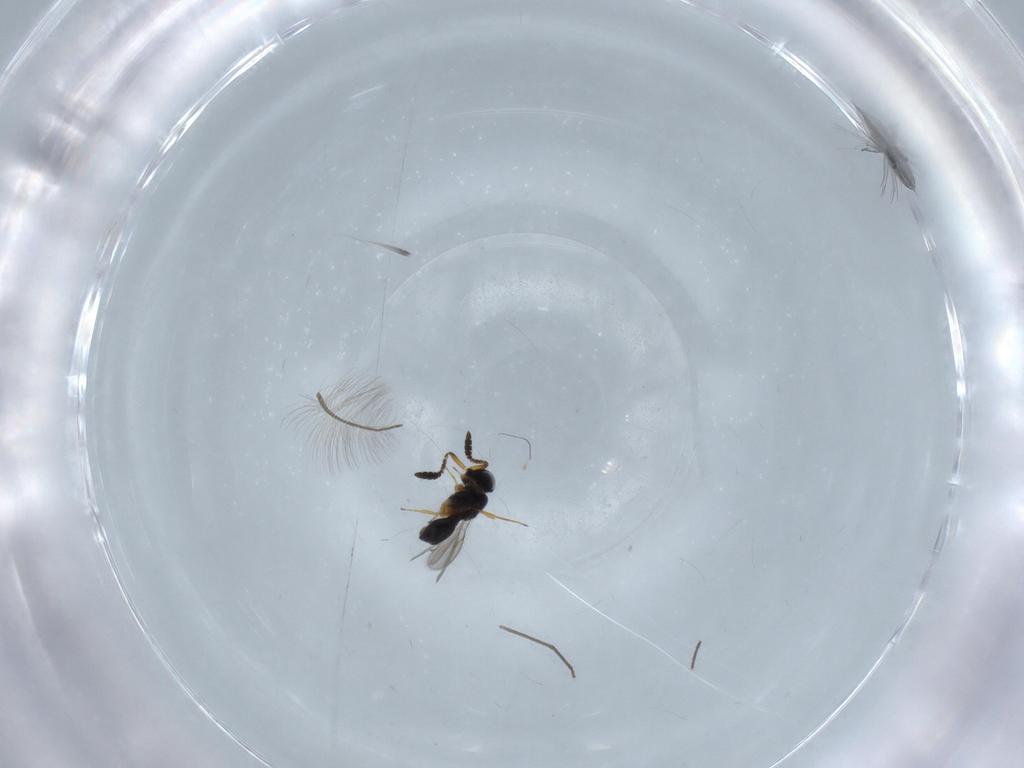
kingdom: Animalia
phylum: Arthropoda
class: Insecta
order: Hymenoptera
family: Scelionidae
